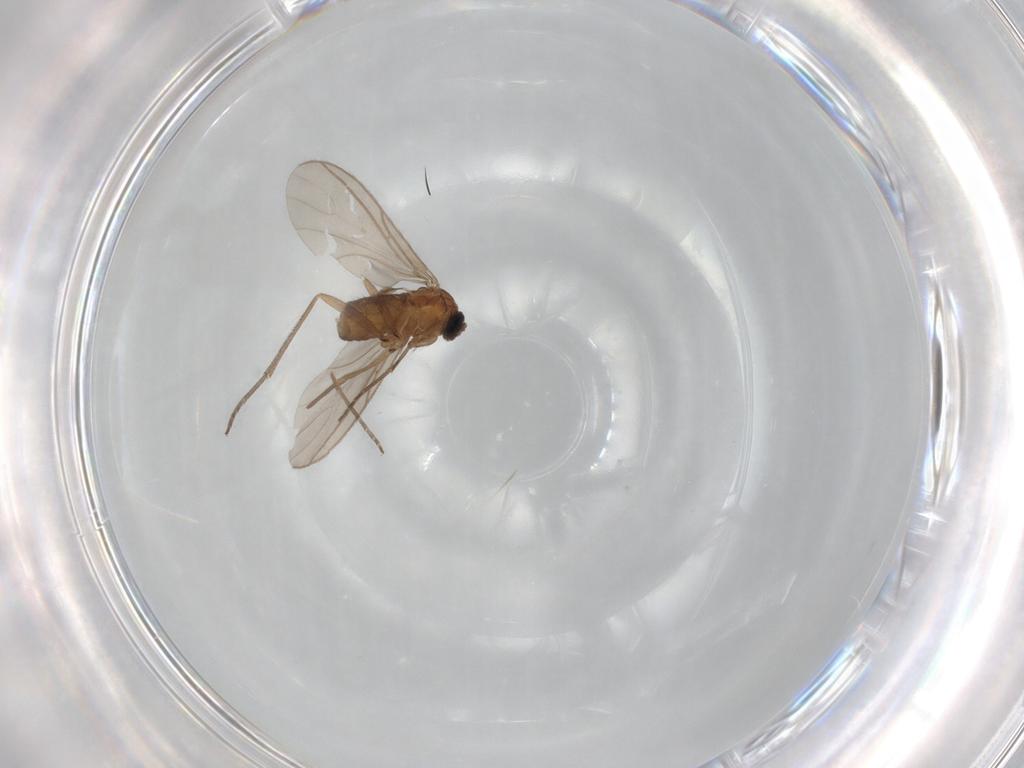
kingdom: Animalia
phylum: Arthropoda
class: Insecta
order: Diptera
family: Sciaridae
